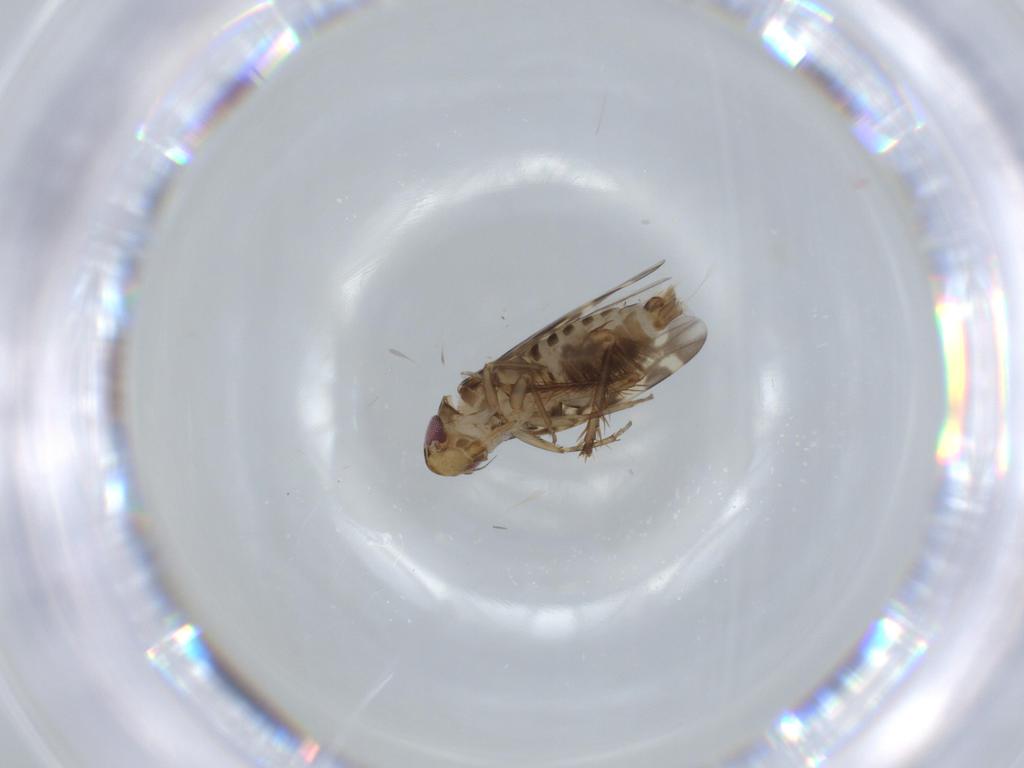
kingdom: Animalia
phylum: Arthropoda
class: Insecta
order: Hemiptera
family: Cicadellidae
